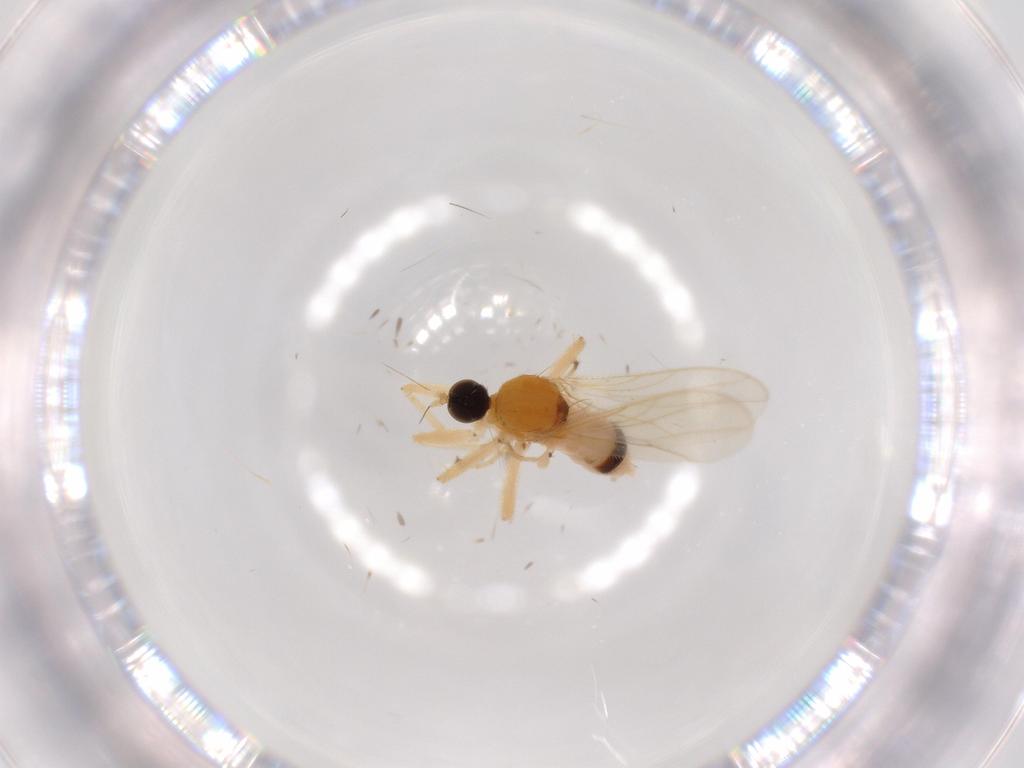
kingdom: Animalia
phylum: Arthropoda
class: Insecta
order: Diptera
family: Hybotidae
